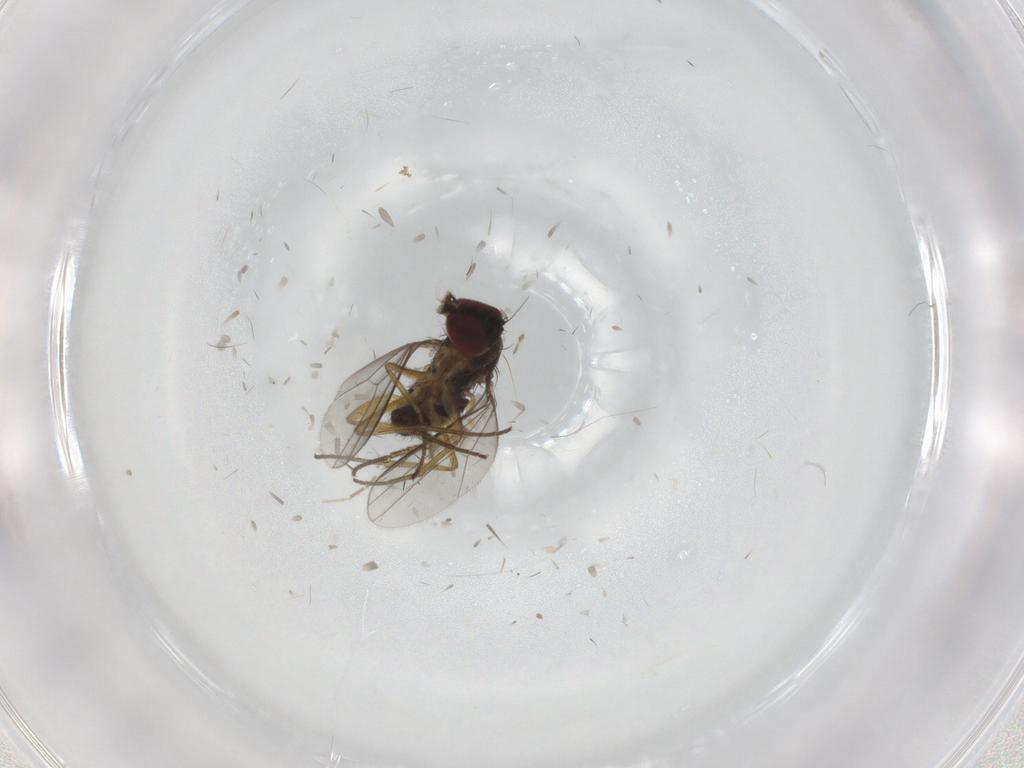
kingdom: Animalia
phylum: Arthropoda
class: Insecta
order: Diptera
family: Dolichopodidae
